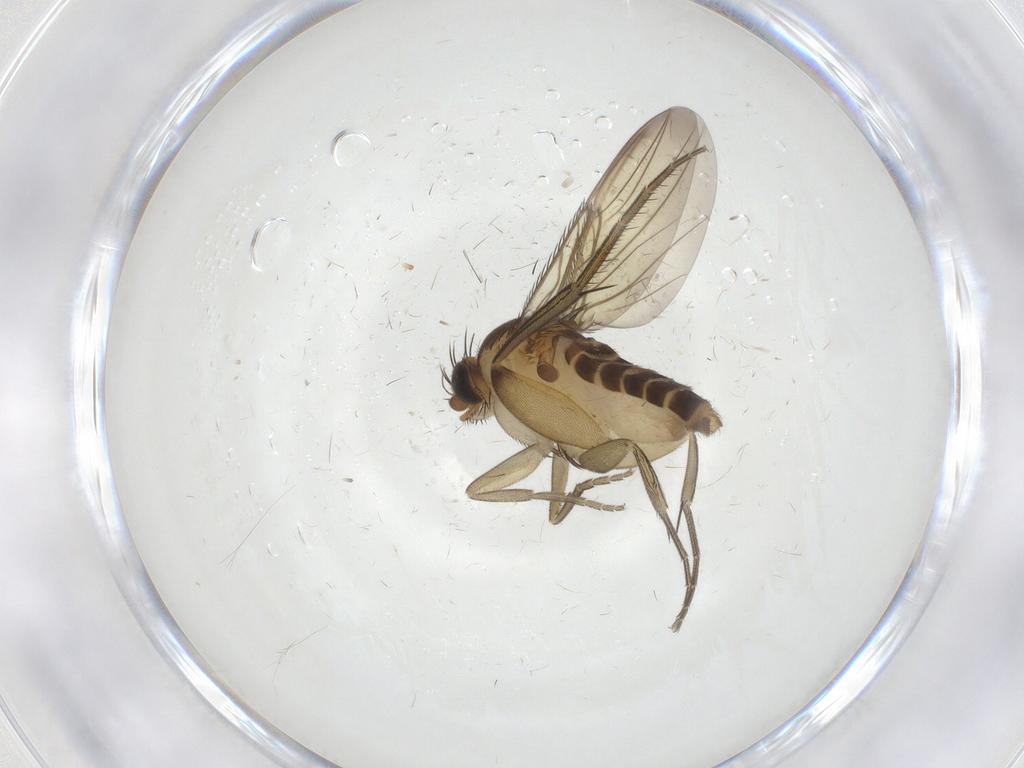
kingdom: Animalia
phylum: Arthropoda
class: Insecta
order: Diptera
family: Phoridae
